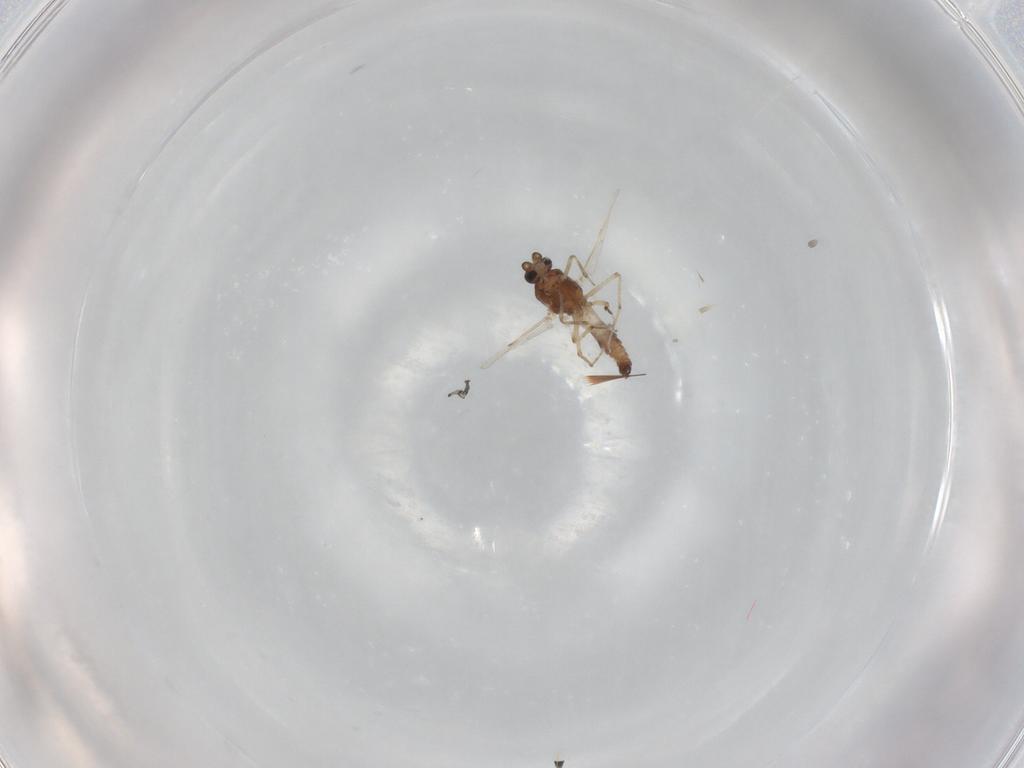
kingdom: Animalia
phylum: Arthropoda
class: Insecta
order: Diptera
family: Ceratopogonidae
